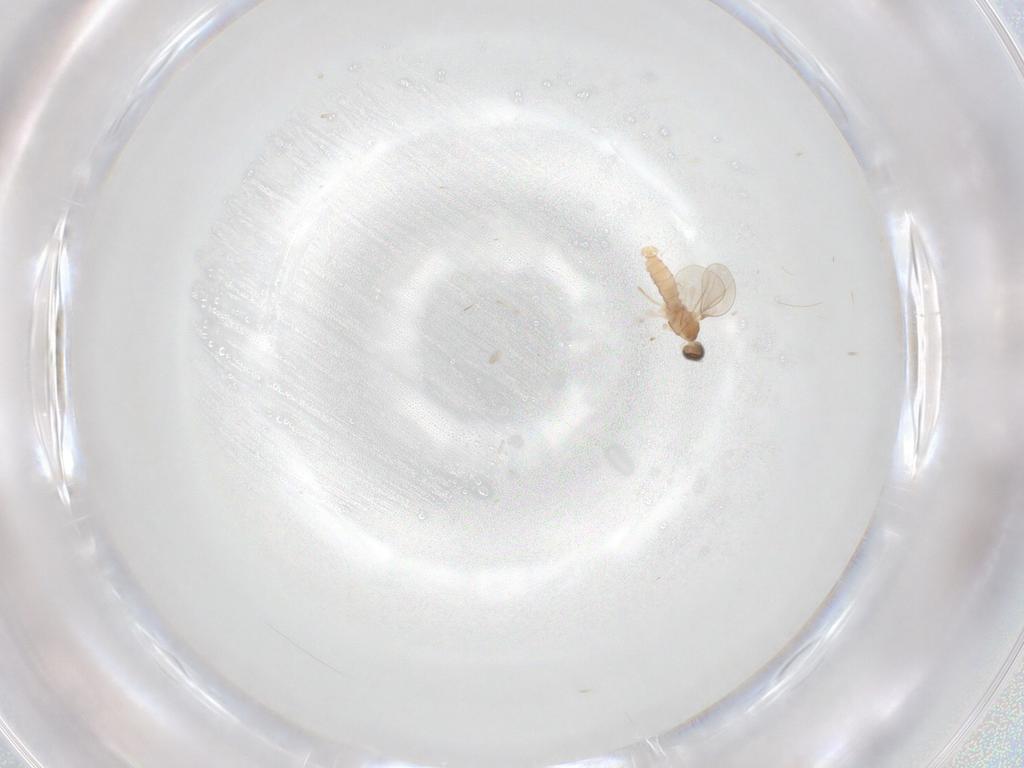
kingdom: Animalia
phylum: Arthropoda
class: Insecta
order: Diptera
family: Cecidomyiidae
